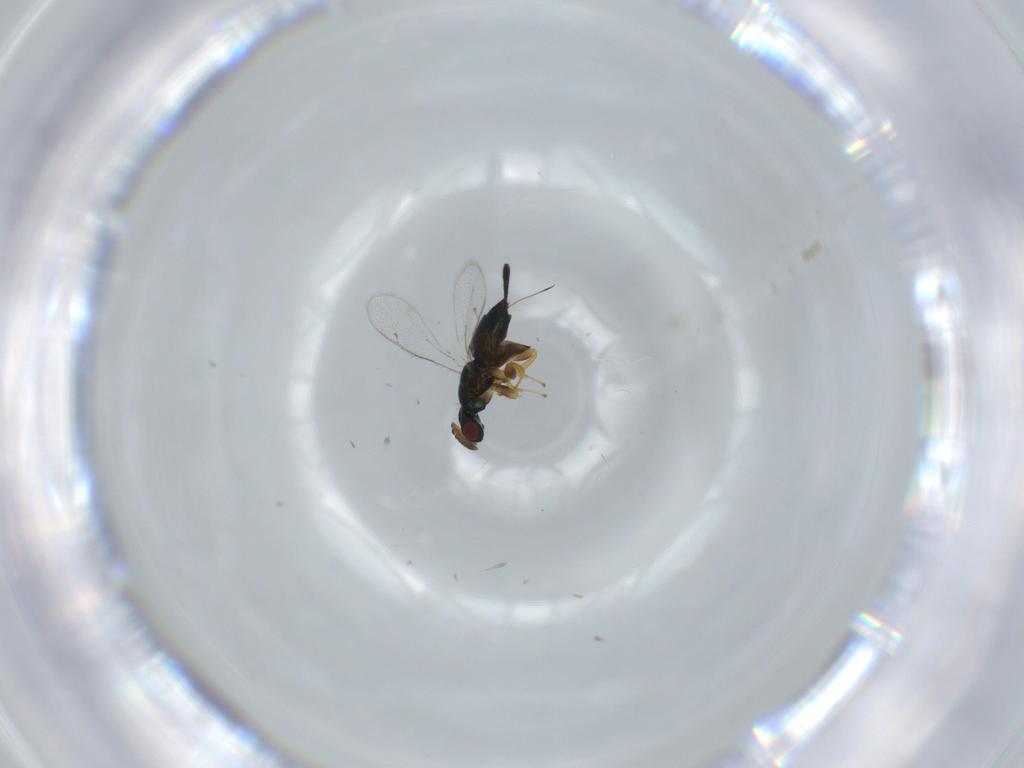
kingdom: Animalia
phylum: Arthropoda
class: Insecta
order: Hymenoptera
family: Torymidae
